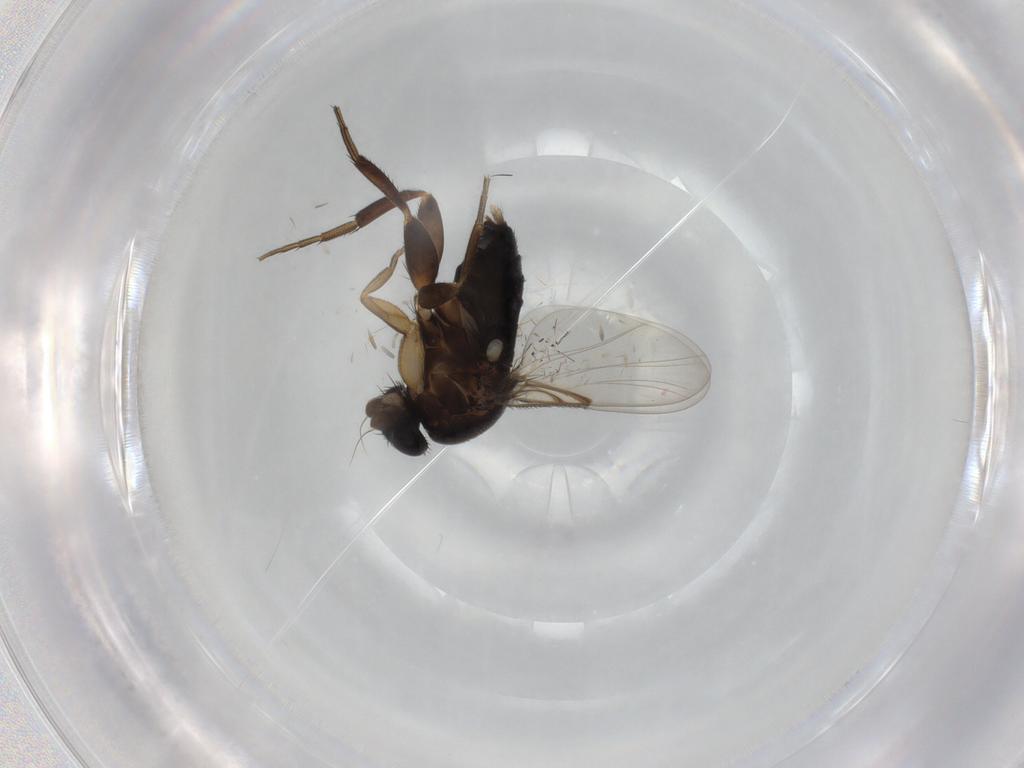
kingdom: Animalia
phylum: Arthropoda
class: Insecta
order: Diptera
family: Phoridae
